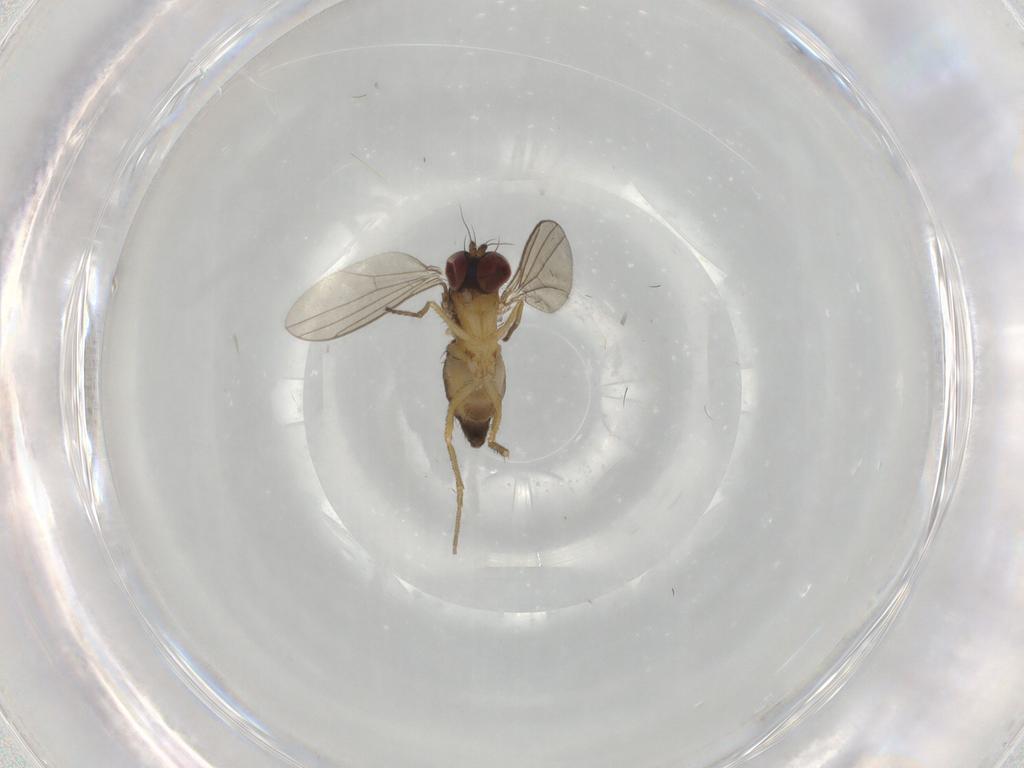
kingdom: Animalia
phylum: Arthropoda
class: Insecta
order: Diptera
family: Dolichopodidae
